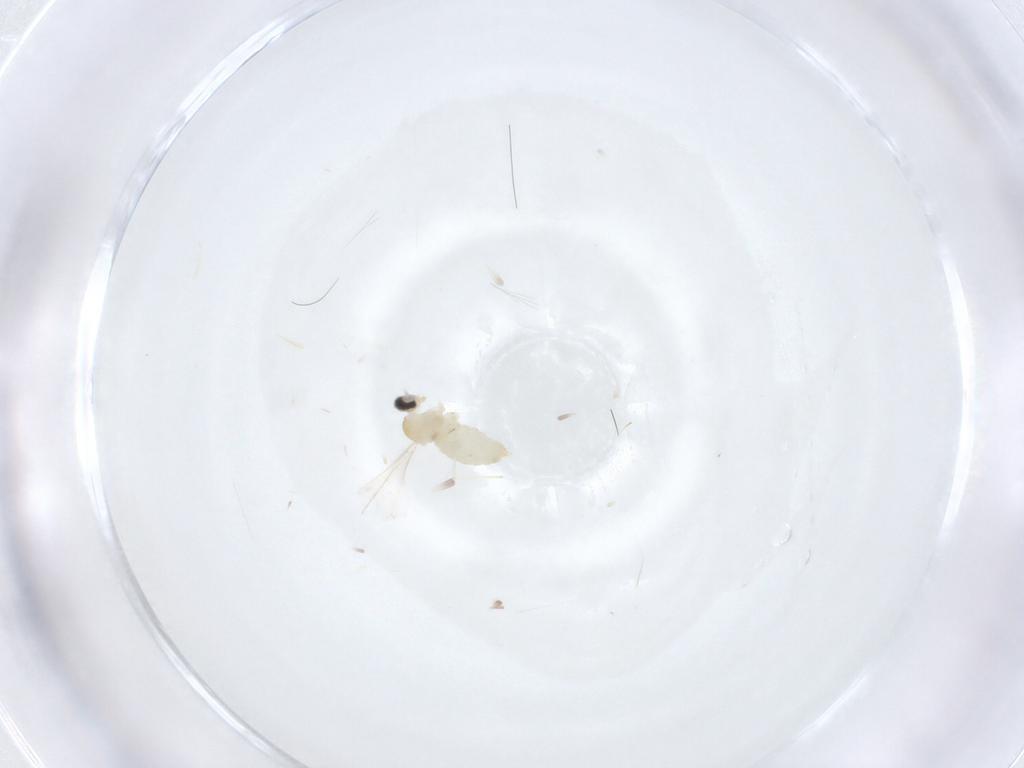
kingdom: Animalia
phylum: Arthropoda
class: Insecta
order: Diptera
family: Cecidomyiidae
